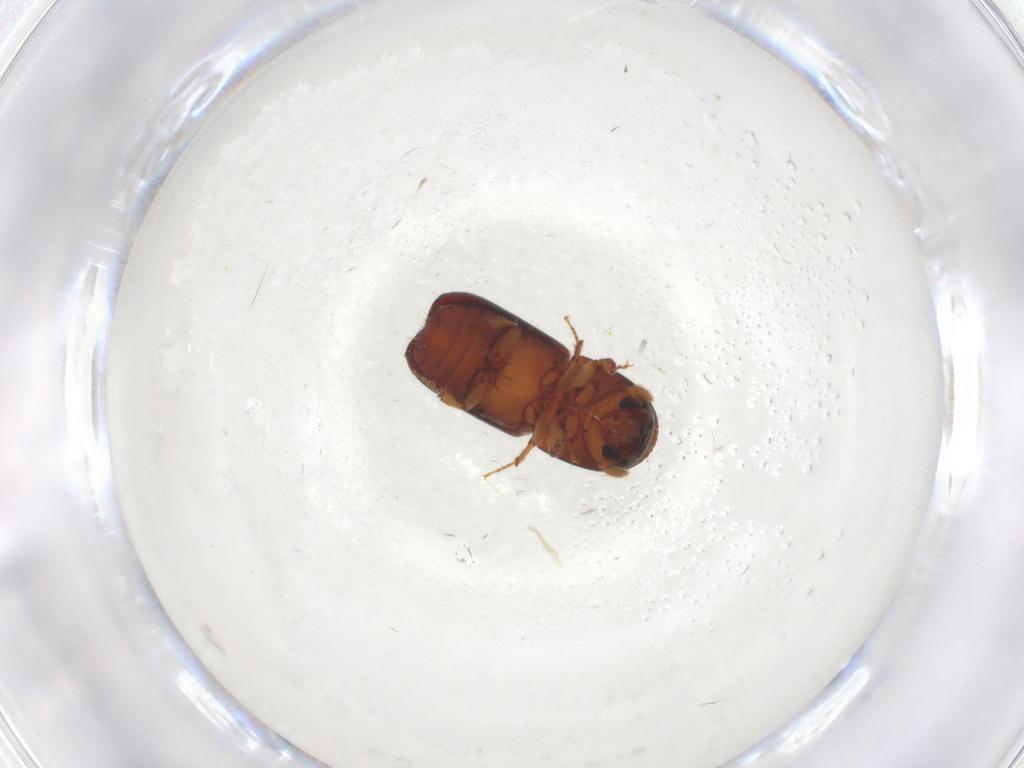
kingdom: Animalia
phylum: Arthropoda
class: Insecta
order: Coleoptera
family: Curculionidae
